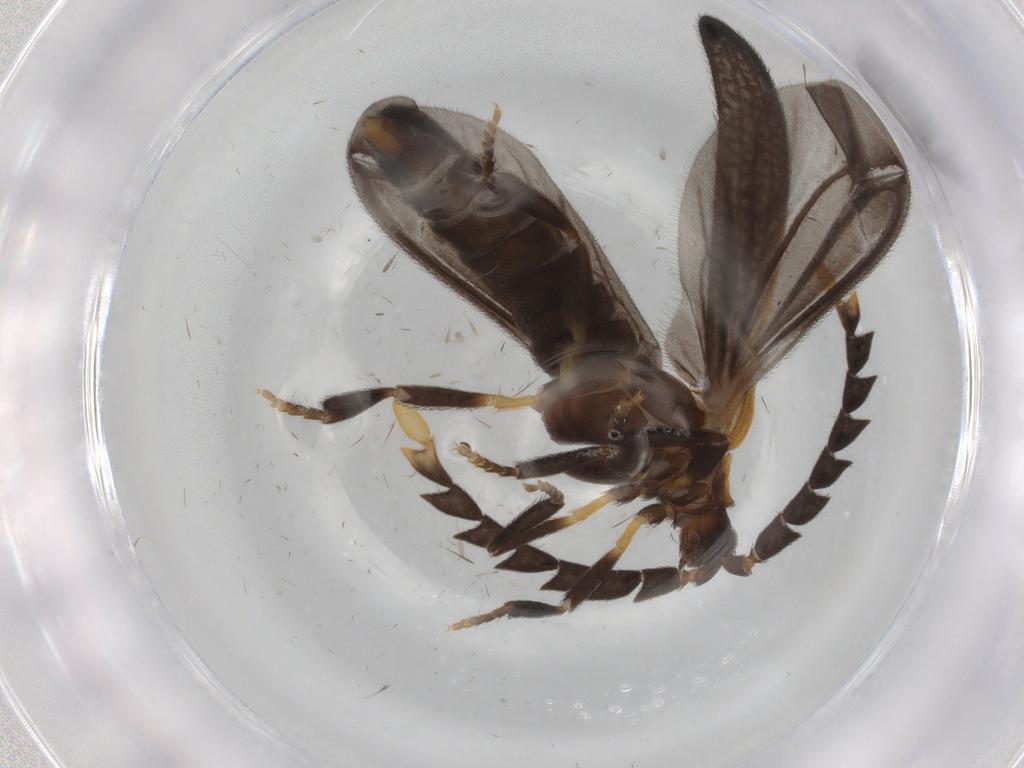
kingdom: Animalia
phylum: Arthropoda
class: Insecta
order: Coleoptera
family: Lycidae
